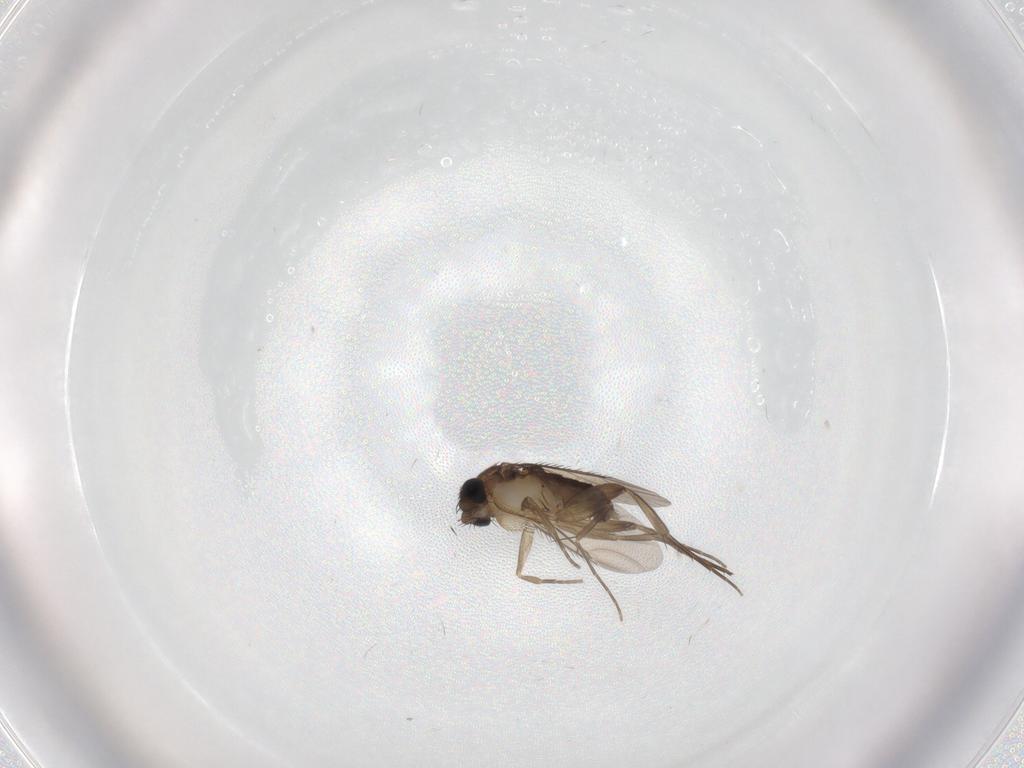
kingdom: Animalia
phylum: Arthropoda
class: Insecta
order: Diptera
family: Phoridae
